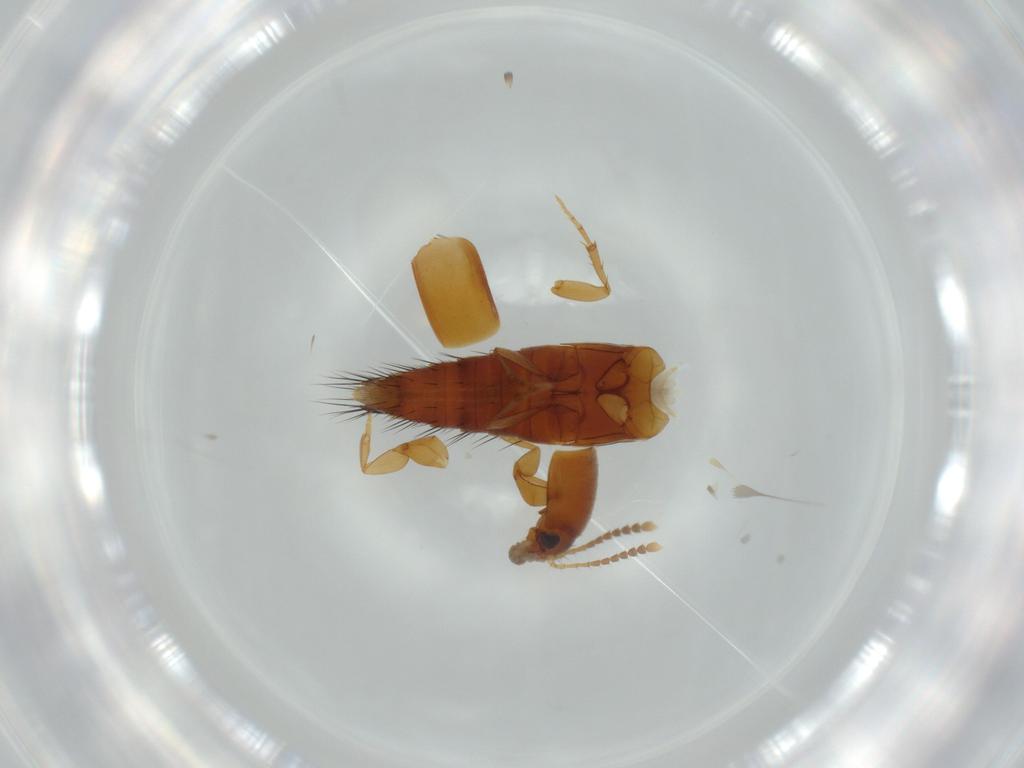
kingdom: Animalia
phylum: Arthropoda
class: Insecta
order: Coleoptera
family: Staphylinidae
